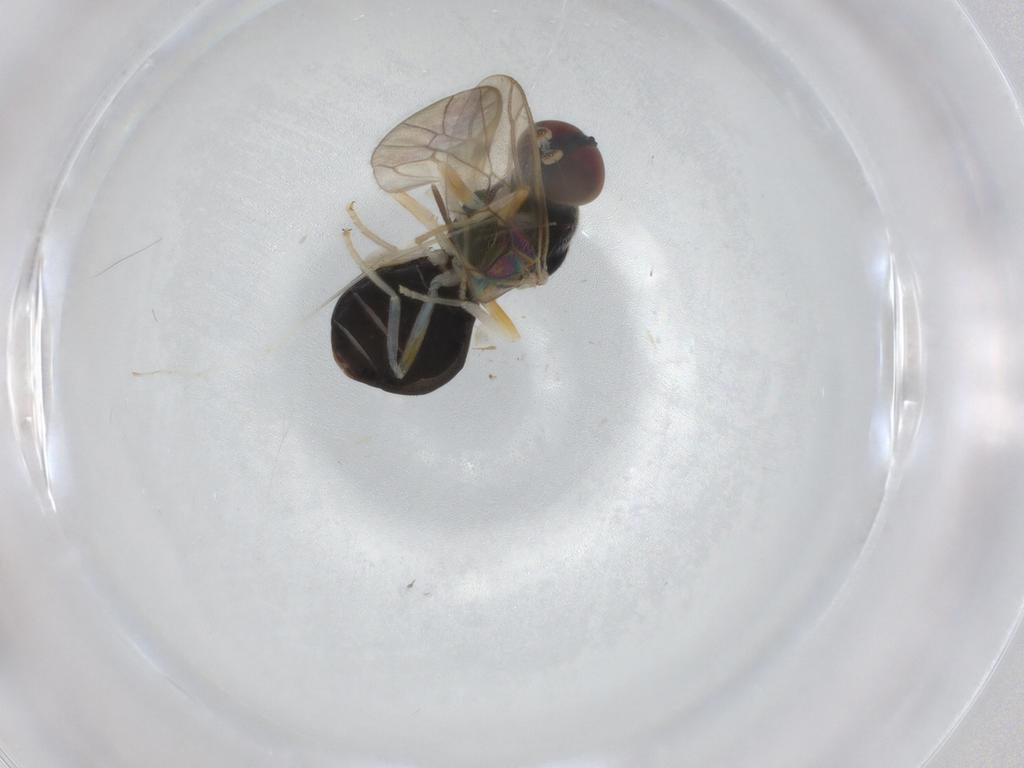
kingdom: Animalia
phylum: Arthropoda
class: Insecta
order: Diptera
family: Stratiomyidae
